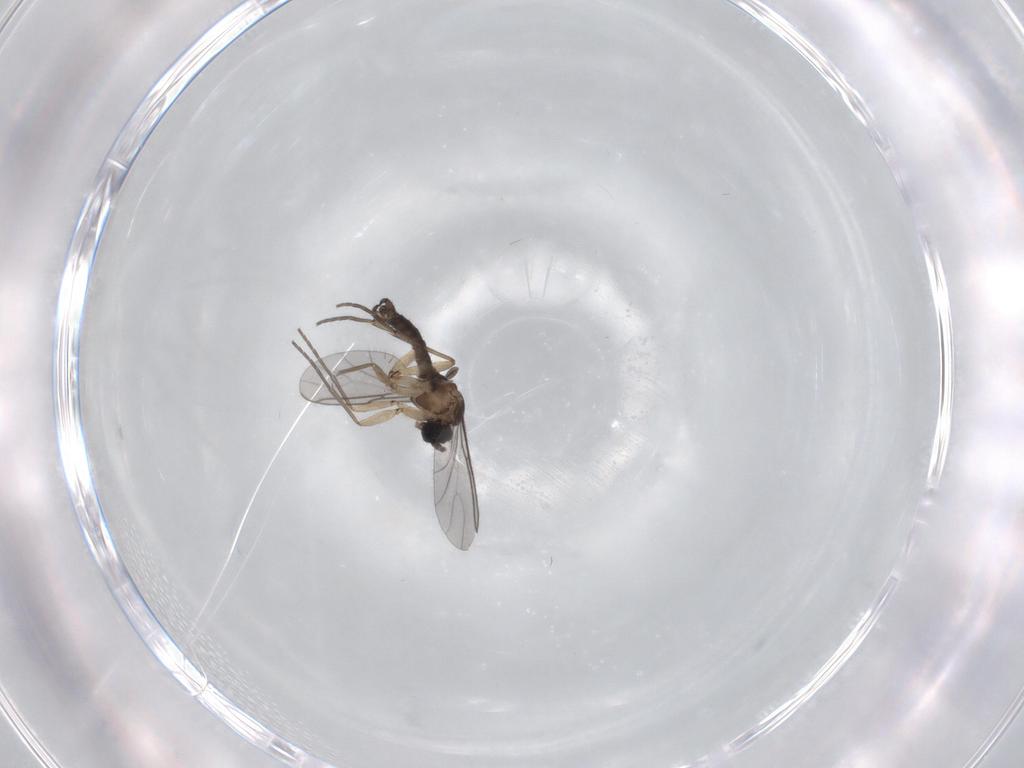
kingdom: Animalia
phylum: Arthropoda
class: Insecta
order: Diptera
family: Sciaridae
